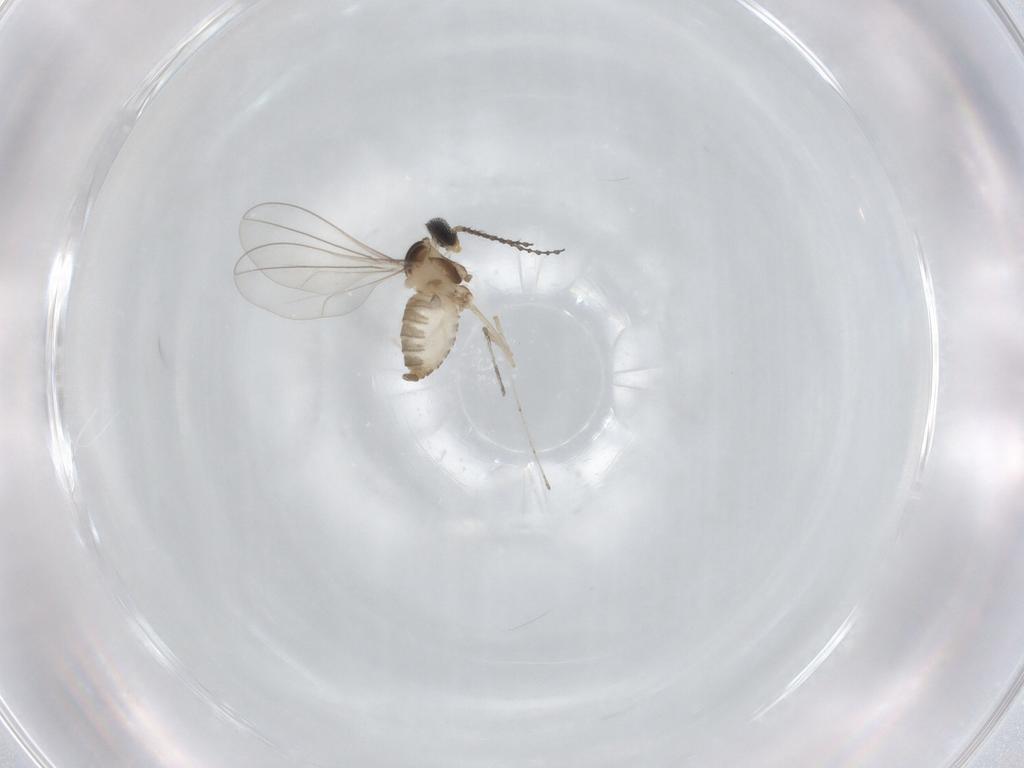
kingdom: Animalia
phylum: Arthropoda
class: Insecta
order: Diptera
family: Cecidomyiidae
